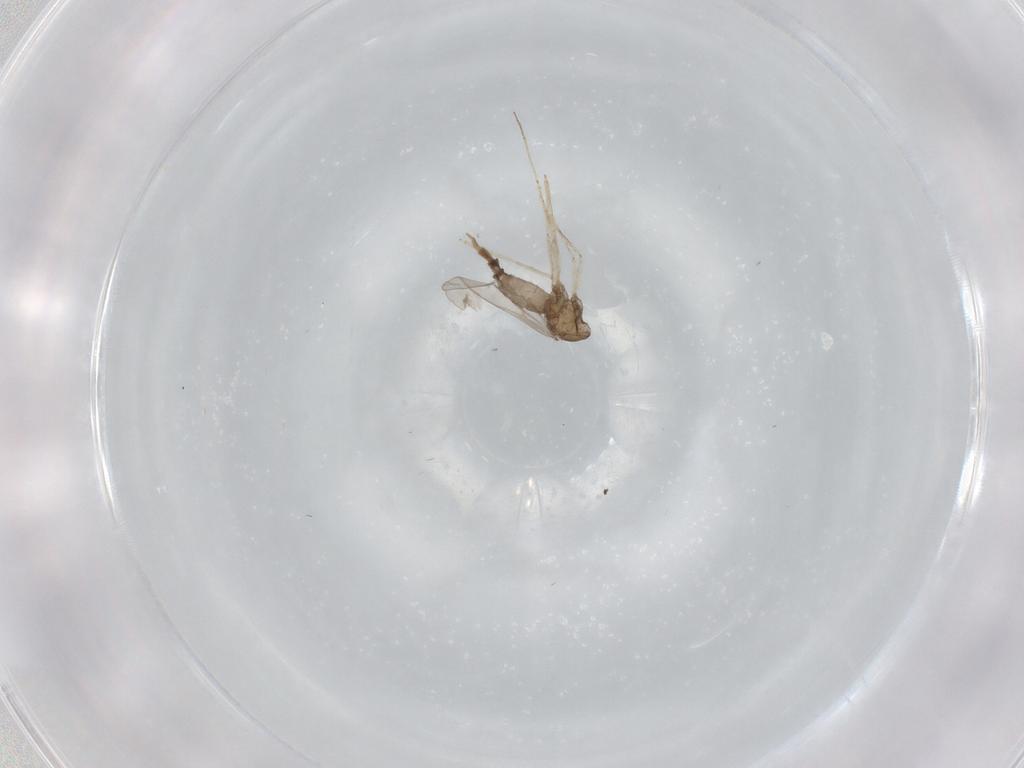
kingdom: Animalia
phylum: Arthropoda
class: Insecta
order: Diptera
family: Cecidomyiidae
